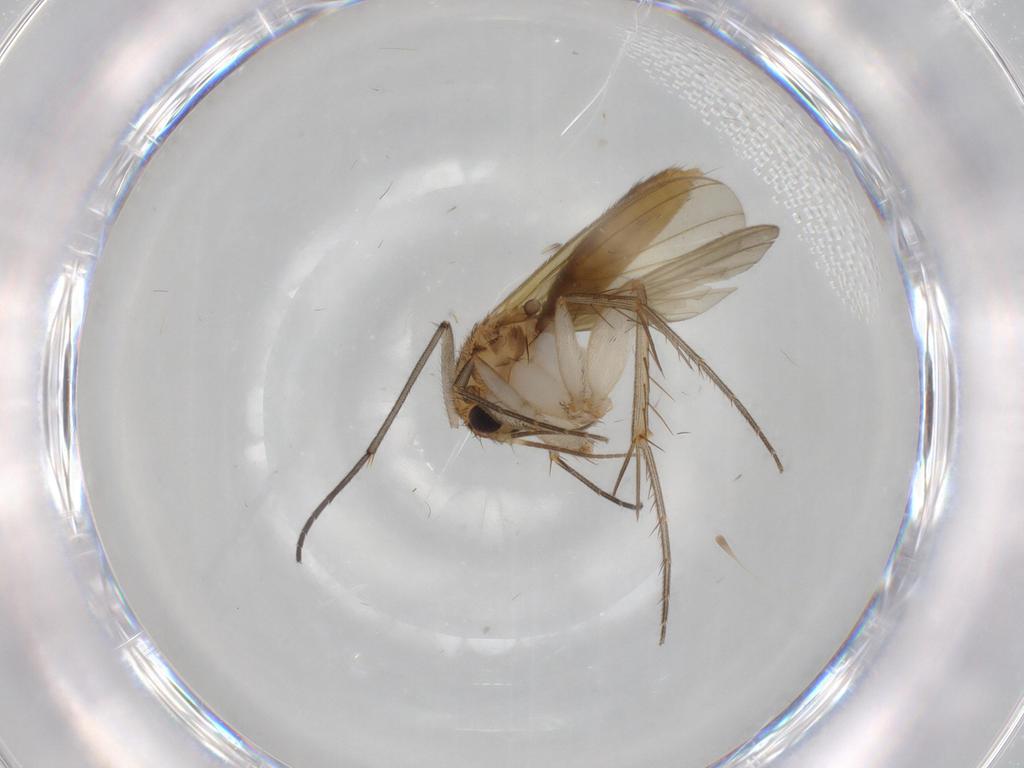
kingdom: Animalia
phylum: Arthropoda
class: Insecta
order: Diptera
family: Mycetophilidae
